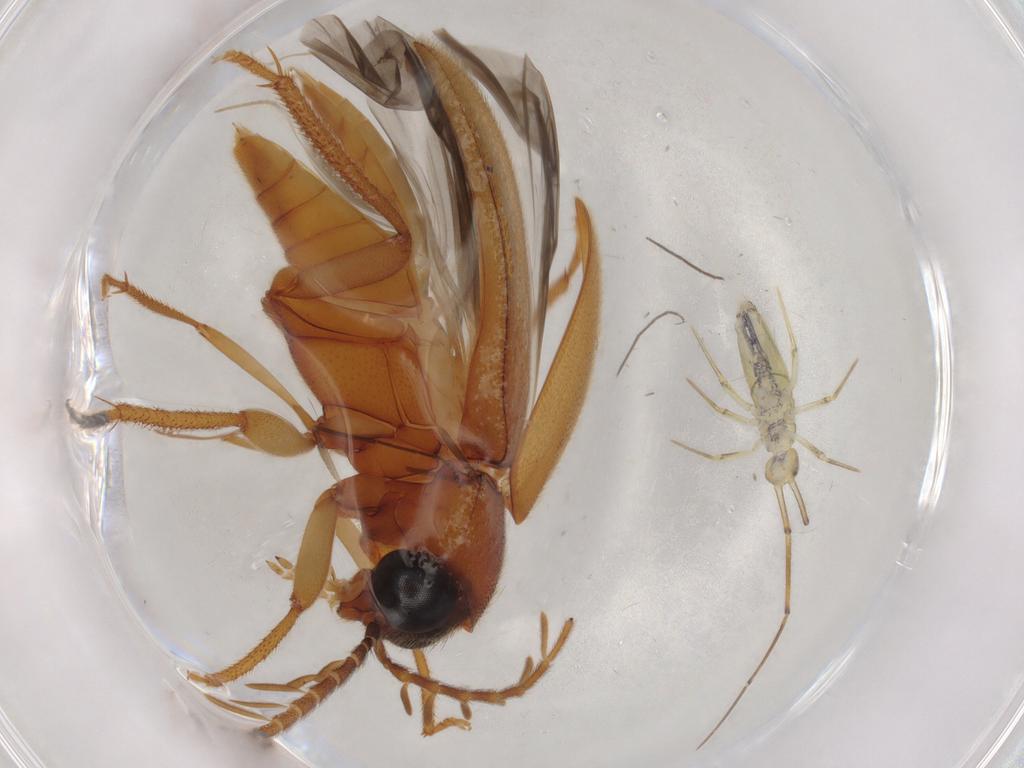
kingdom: Animalia
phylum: Arthropoda
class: Insecta
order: Coleoptera
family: Ptilodactylidae
